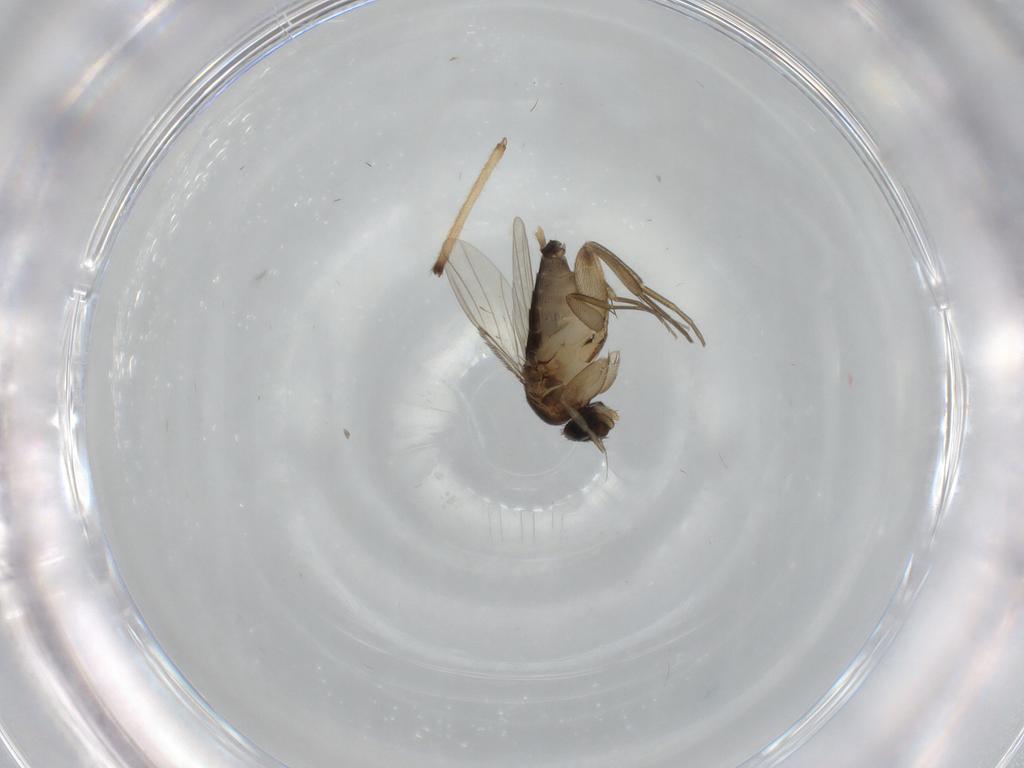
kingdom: Animalia
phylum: Arthropoda
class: Insecta
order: Diptera
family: Chironomidae
